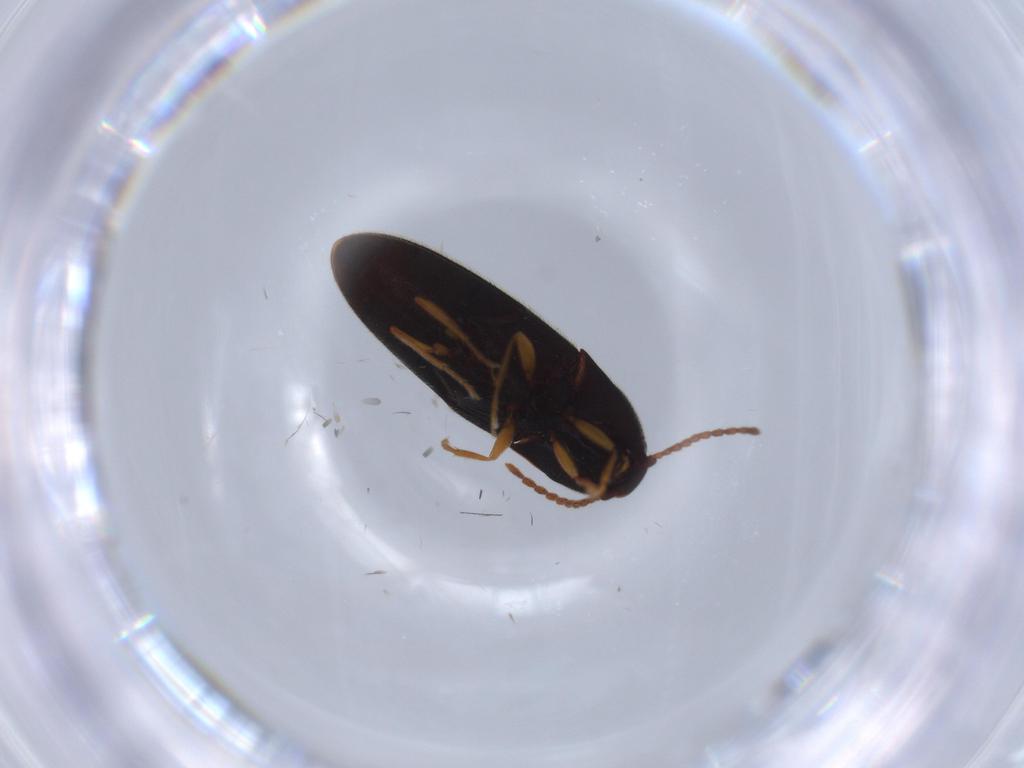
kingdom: Animalia
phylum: Arthropoda
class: Insecta
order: Coleoptera
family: Elateridae
